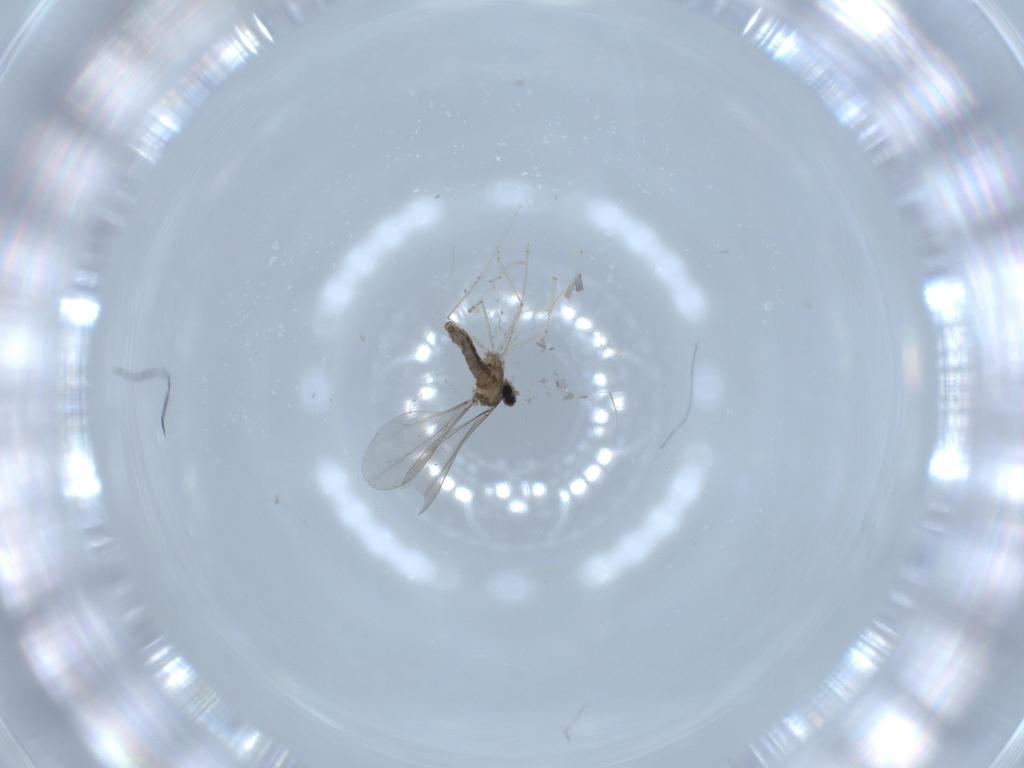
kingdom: Animalia
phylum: Arthropoda
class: Insecta
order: Diptera
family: Cecidomyiidae
